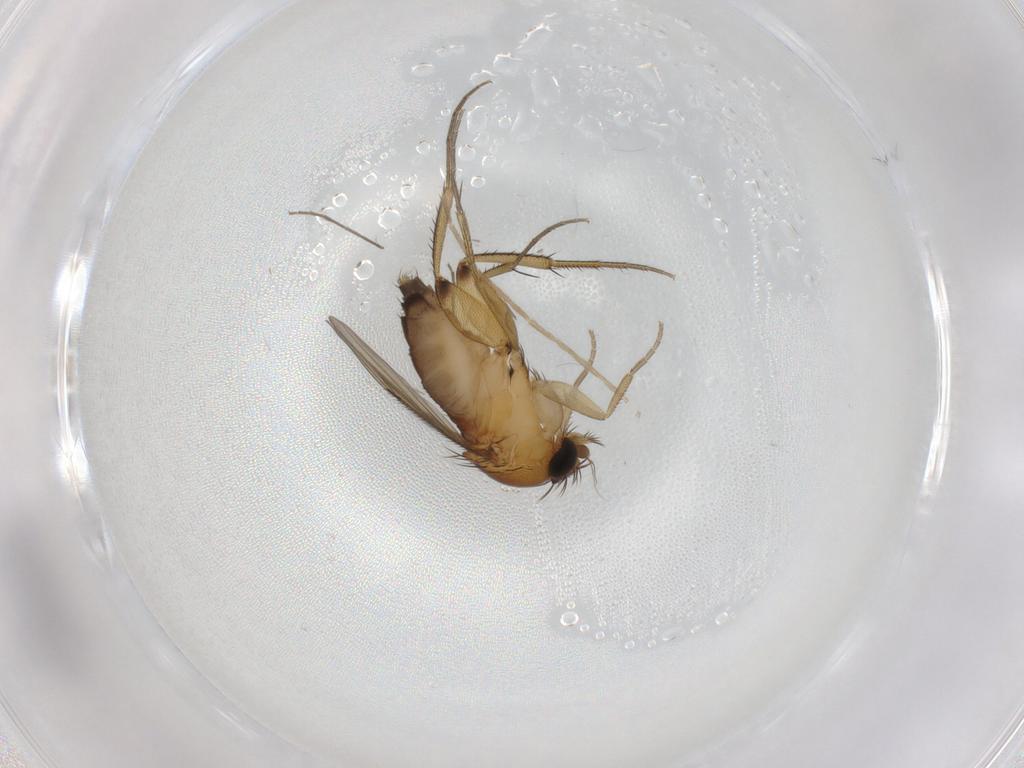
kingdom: Animalia
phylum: Arthropoda
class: Insecta
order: Diptera
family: Phoridae
